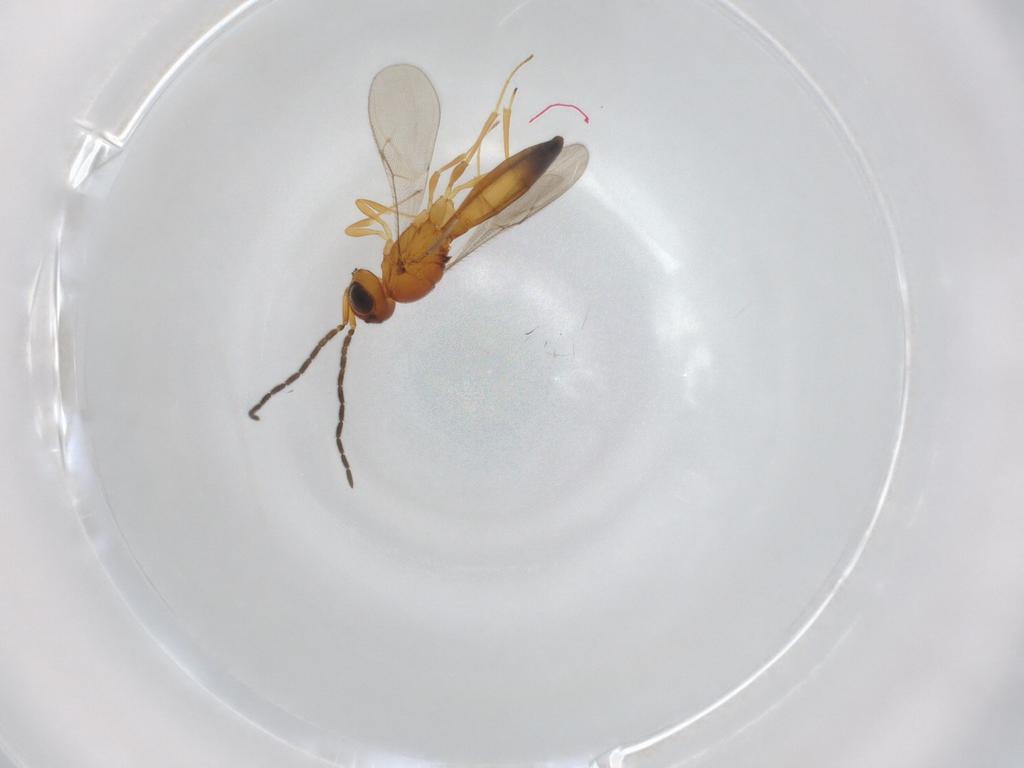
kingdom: Animalia
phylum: Arthropoda
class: Insecta
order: Hymenoptera
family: Scelionidae
